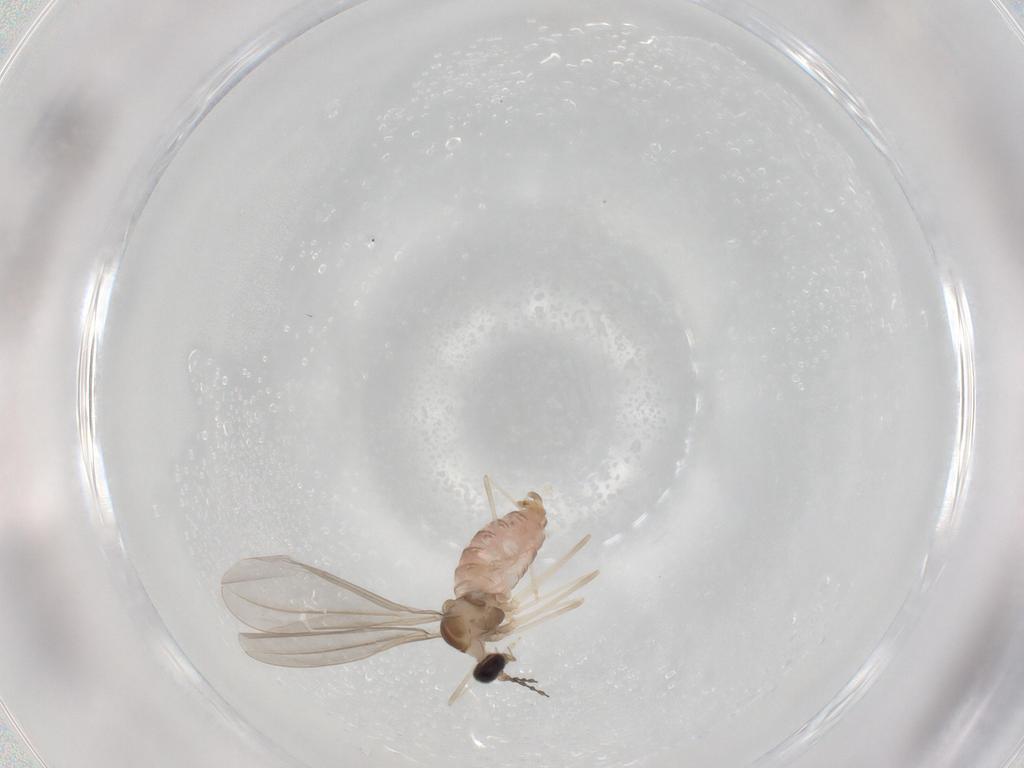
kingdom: Animalia
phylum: Arthropoda
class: Insecta
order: Diptera
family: Cecidomyiidae
